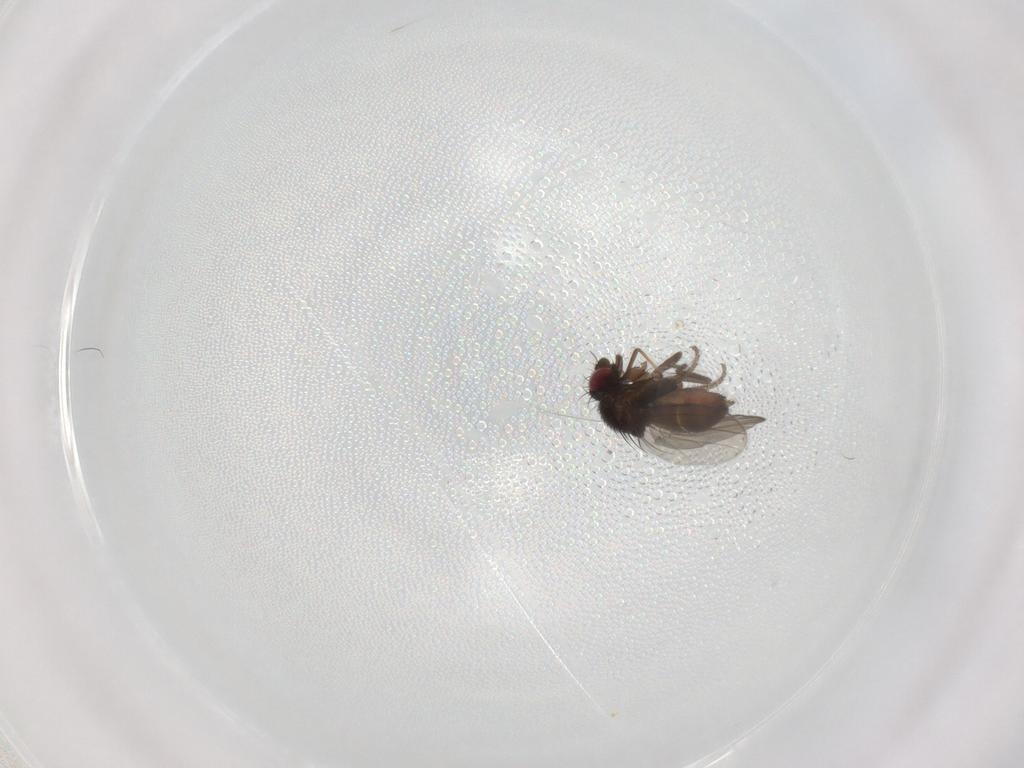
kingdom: Animalia
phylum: Arthropoda
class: Insecta
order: Diptera
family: Milichiidae
